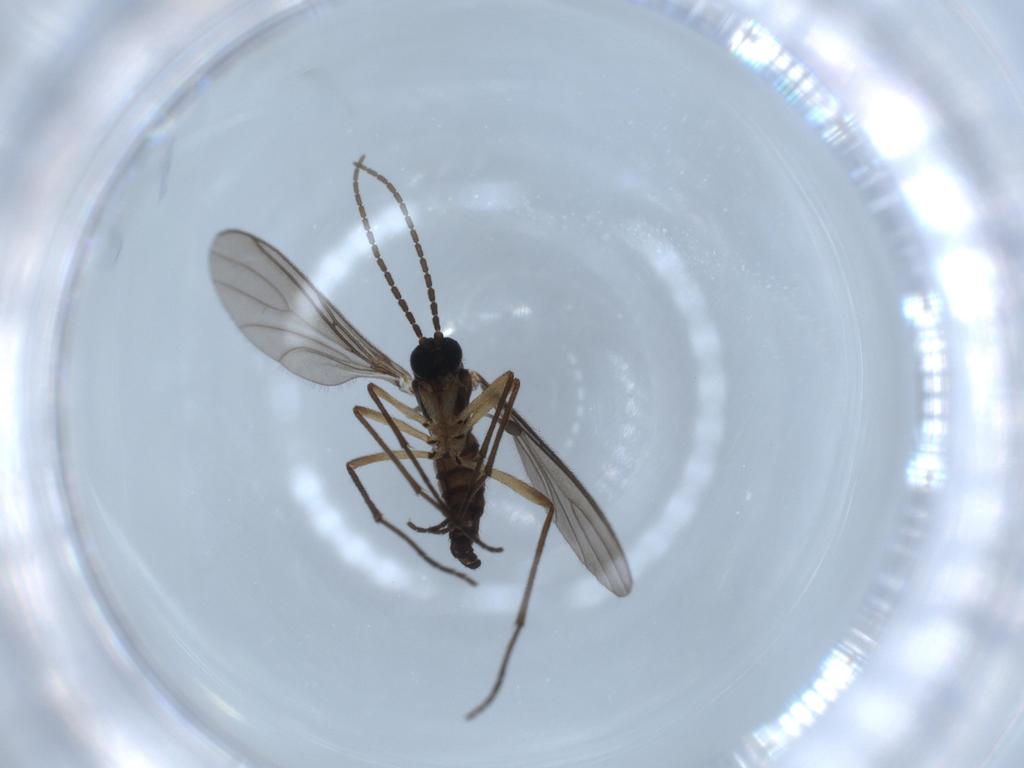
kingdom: Animalia
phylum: Arthropoda
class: Insecta
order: Diptera
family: Sciaridae
